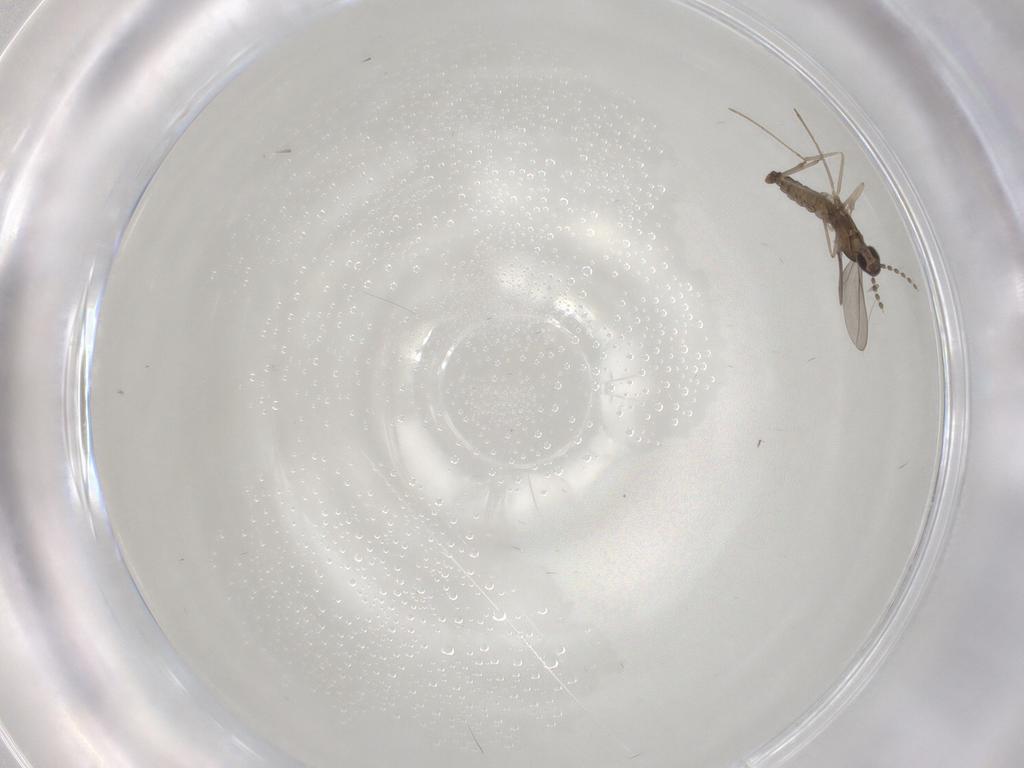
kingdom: Animalia
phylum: Arthropoda
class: Insecta
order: Diptera
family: Cecidomyiidae
